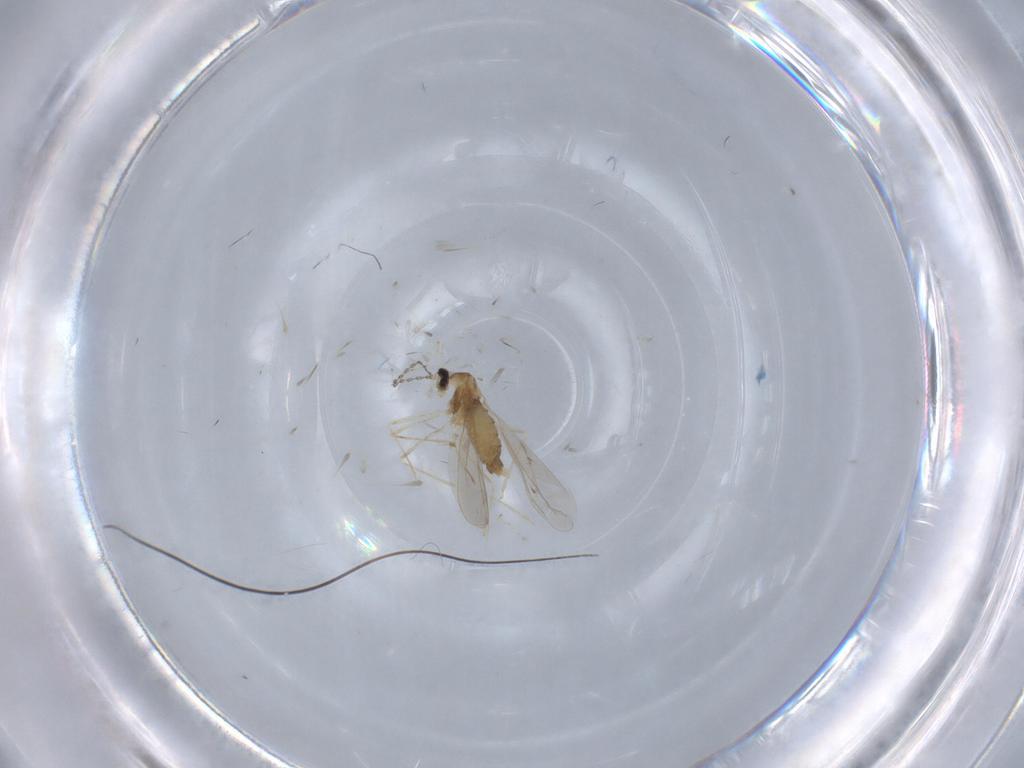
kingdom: Animalia
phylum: Arthropoda
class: Insecta
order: Diptera
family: Cecidomyiidae
